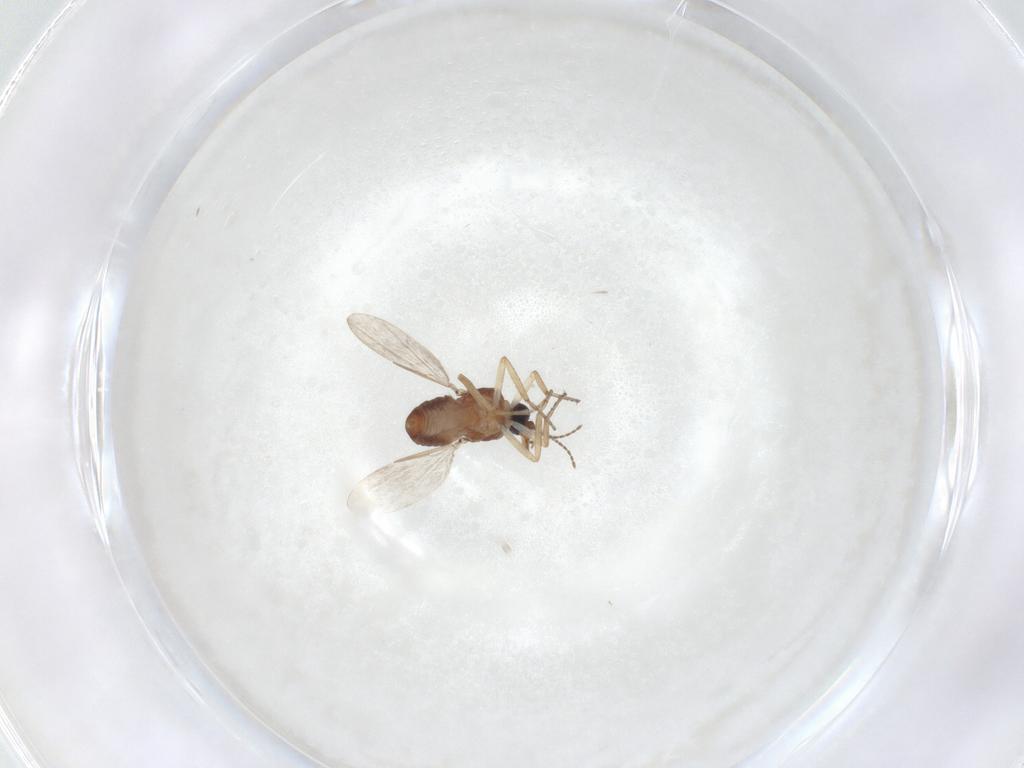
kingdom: Animalia
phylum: Arthropoda
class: Insecta
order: Diptera
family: Ceratopogonidae
